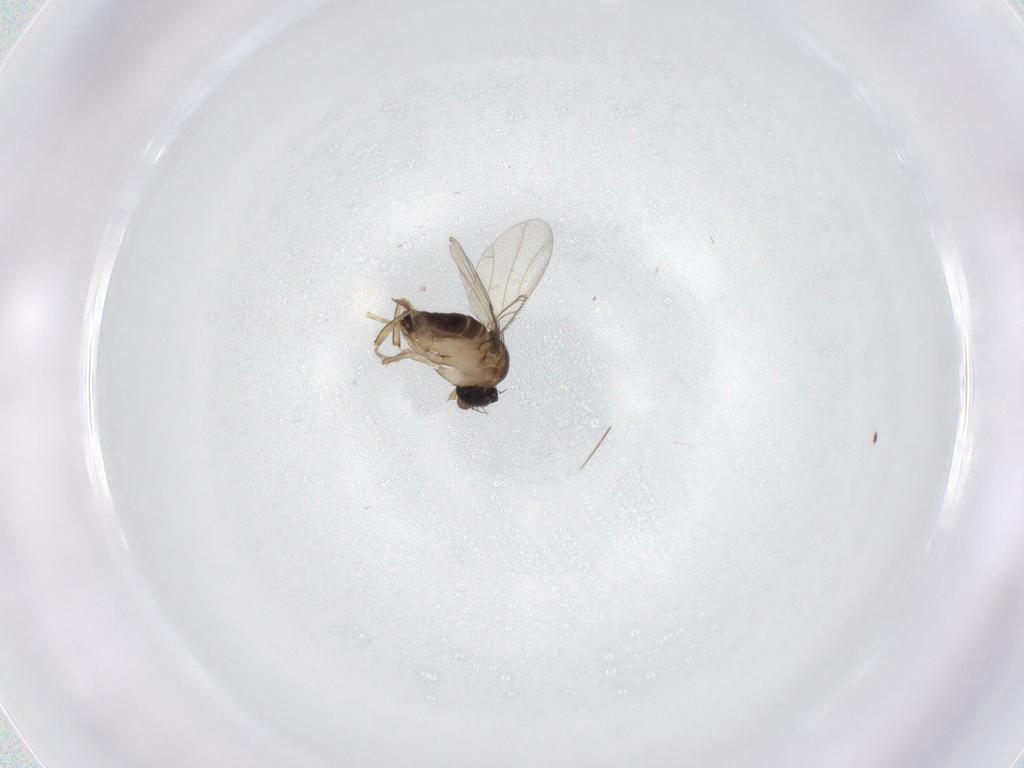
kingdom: Animalia
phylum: Arthropoda
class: Insecta
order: Diptera
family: Phoridae
